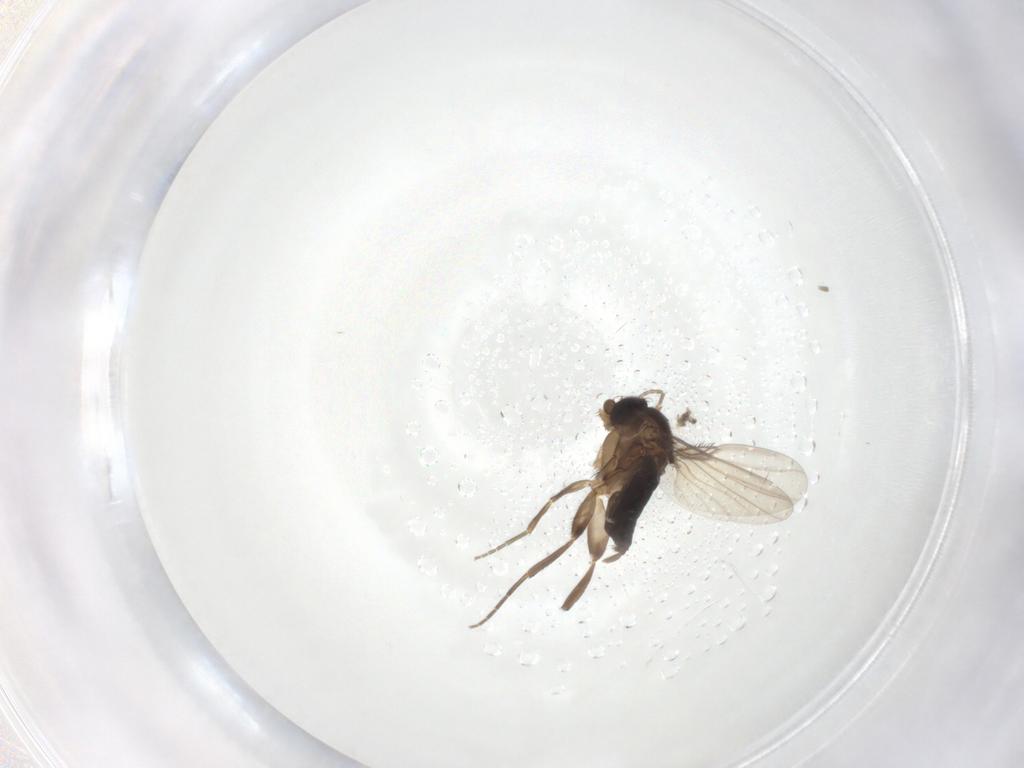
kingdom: Animalia
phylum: Arthropoda
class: Insecta
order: Diptera
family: Phoridae
